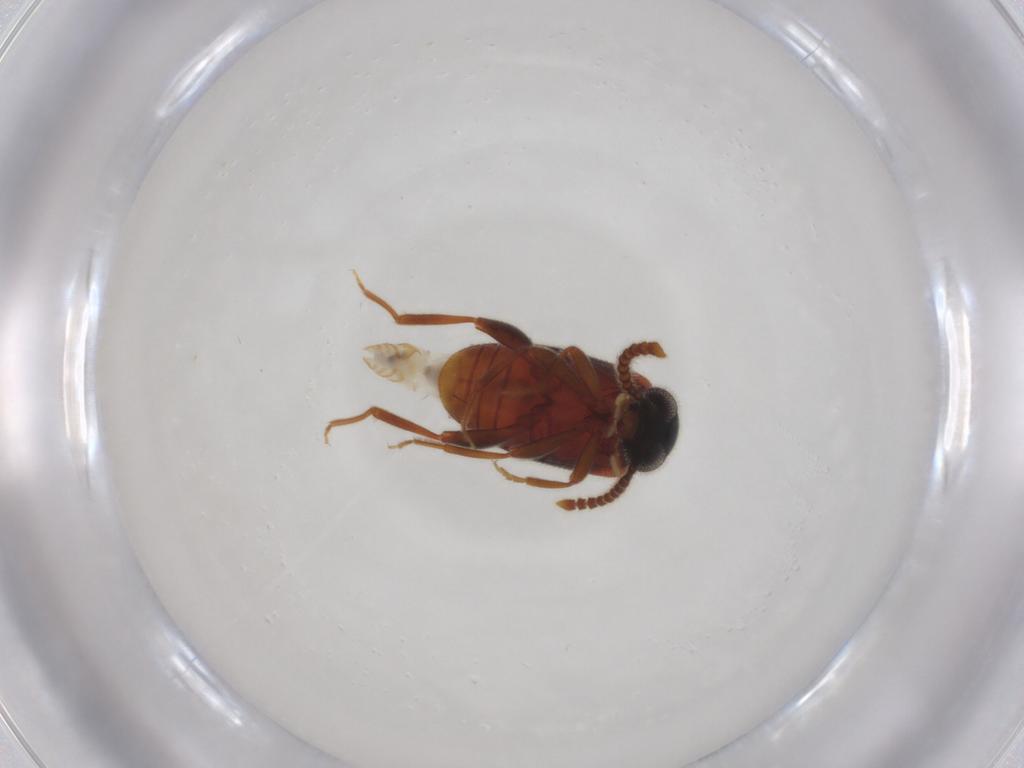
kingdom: Animalia
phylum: Arthropoda
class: Insecta
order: Coleoptera
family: Aderidae
